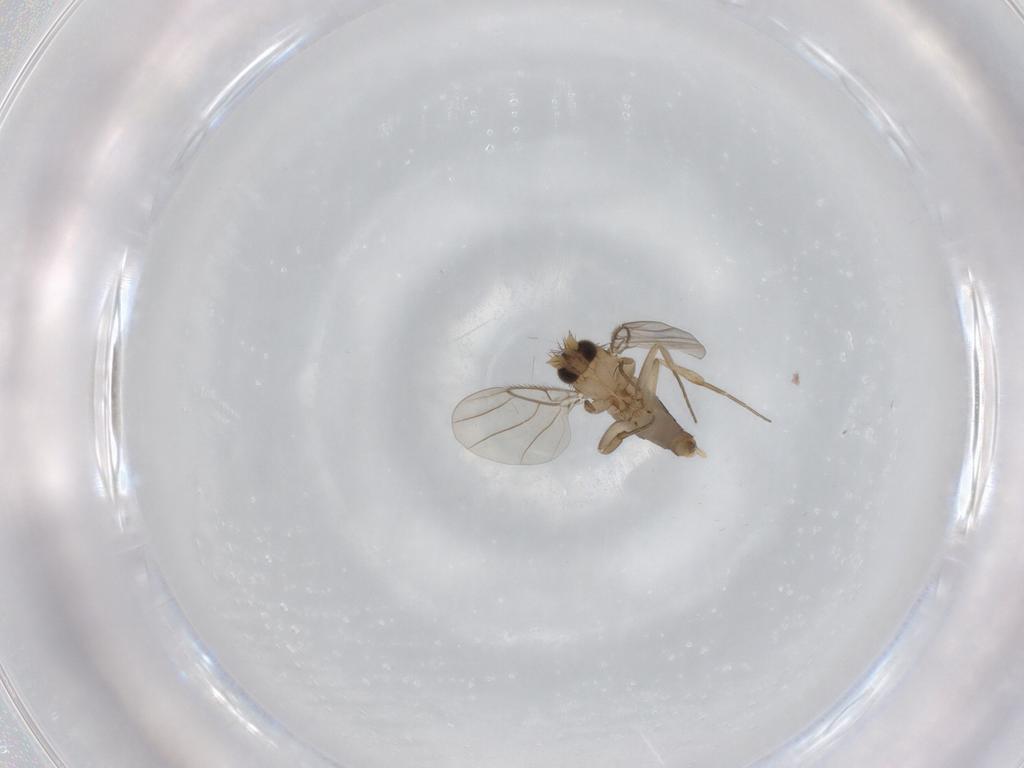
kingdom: Animalia
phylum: Arthropoda
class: Insecta
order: Diptera
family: Phoridae
